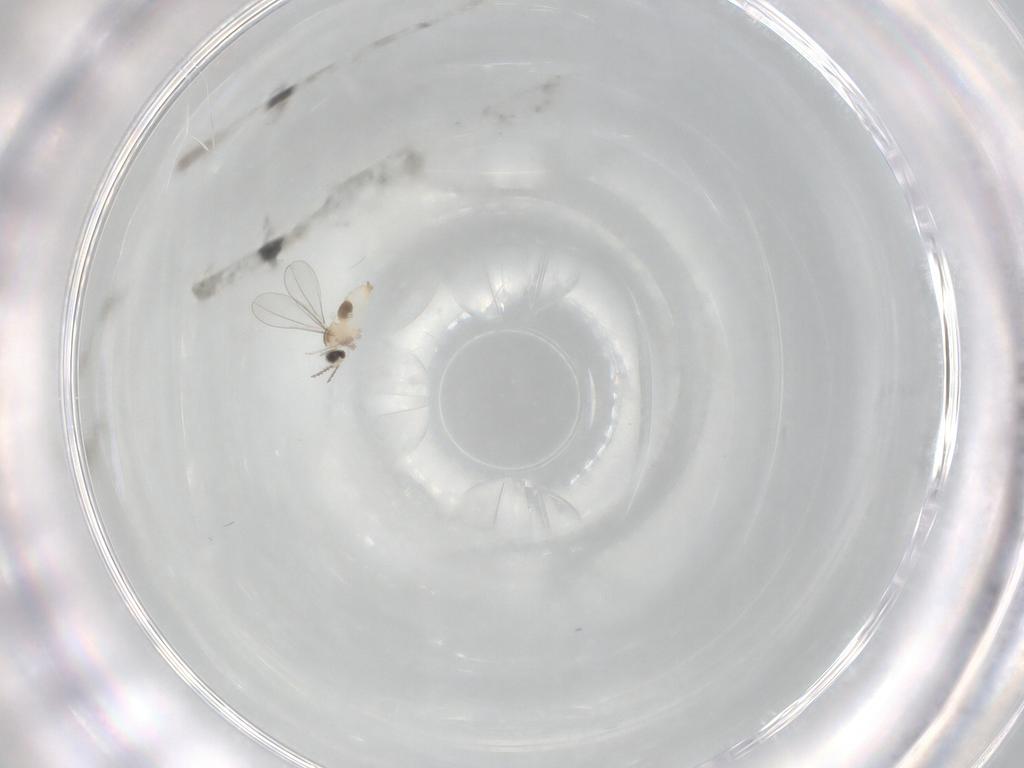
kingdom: Animalia
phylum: Arthropoda
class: Insecta
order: Diptera
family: Cecidomyiidae
